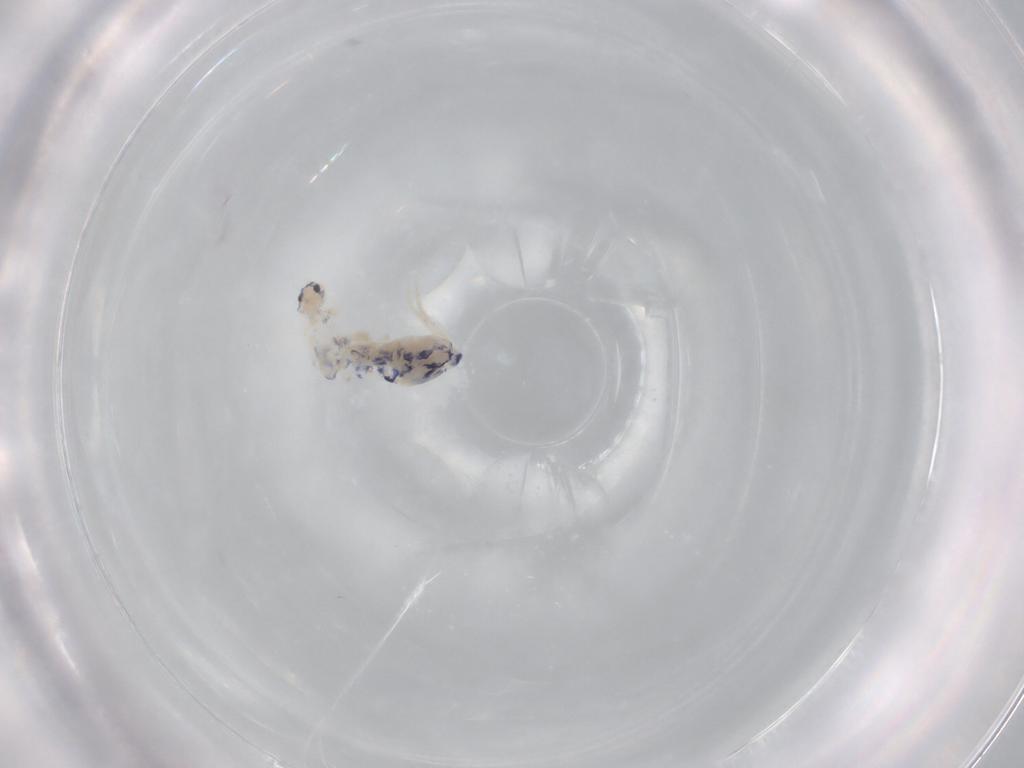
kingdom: Animalia
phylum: Arthropoda
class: Collembola
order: Entomobryomorpha
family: Entomobryidae
